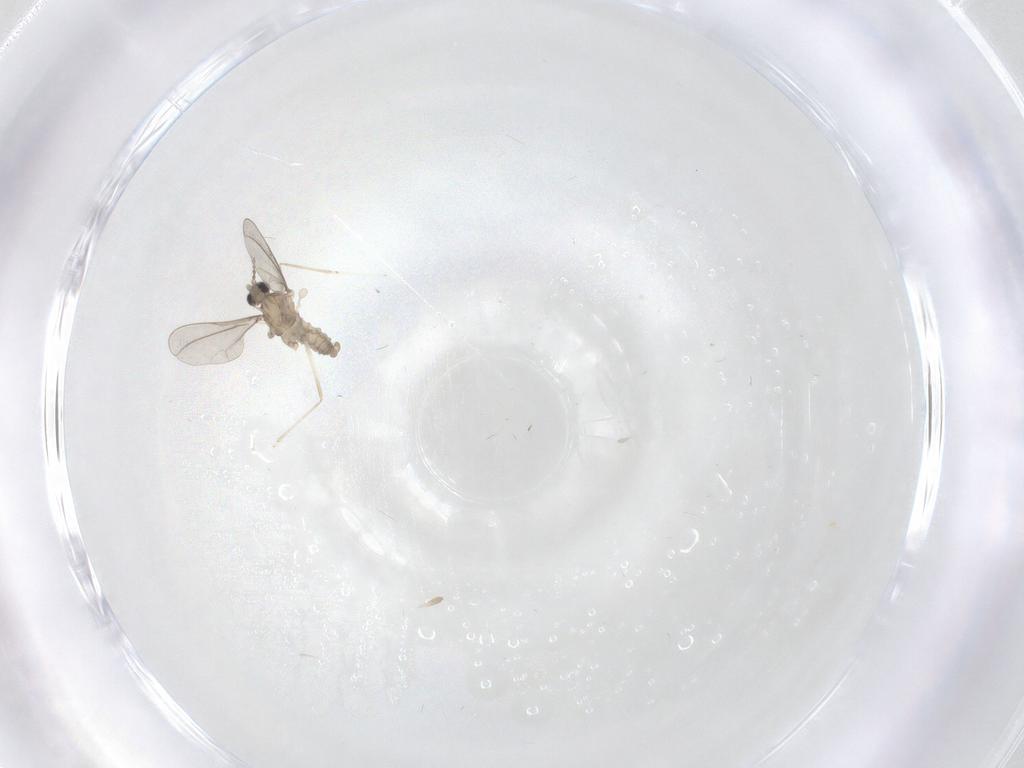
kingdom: Animalia
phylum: Arthropoda
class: Insecta
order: Diptera
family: Cecidomyiidae
